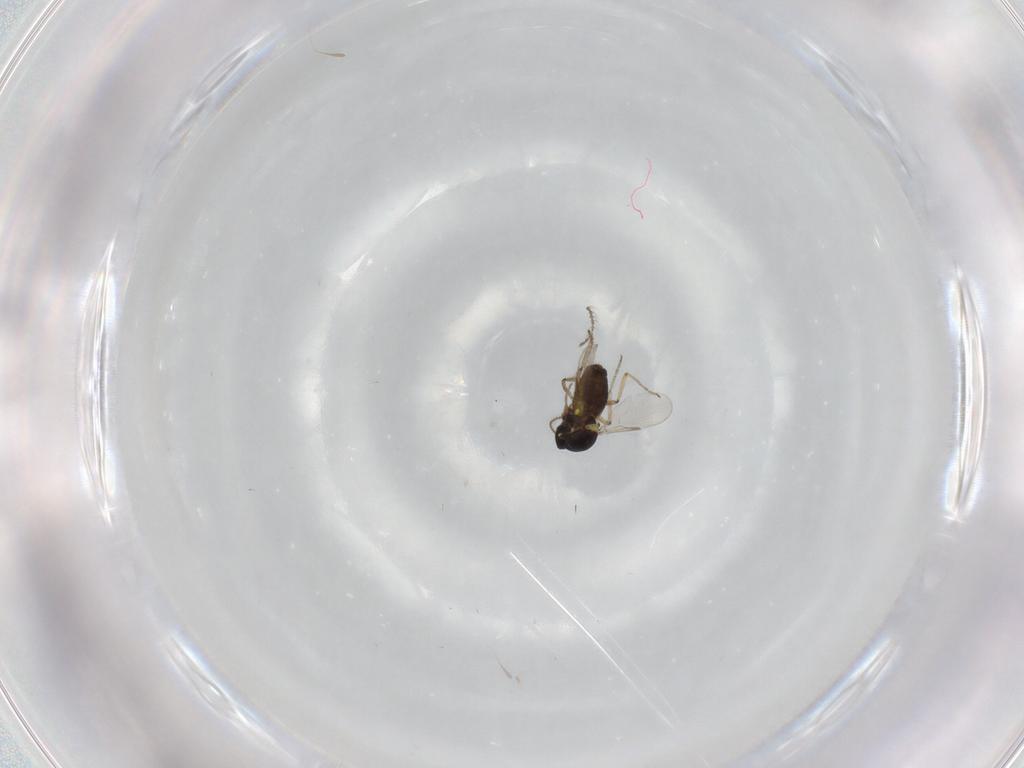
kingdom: Animalia
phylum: Arthropoda
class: Insecta
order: Diptera
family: Ceratopogonidae
